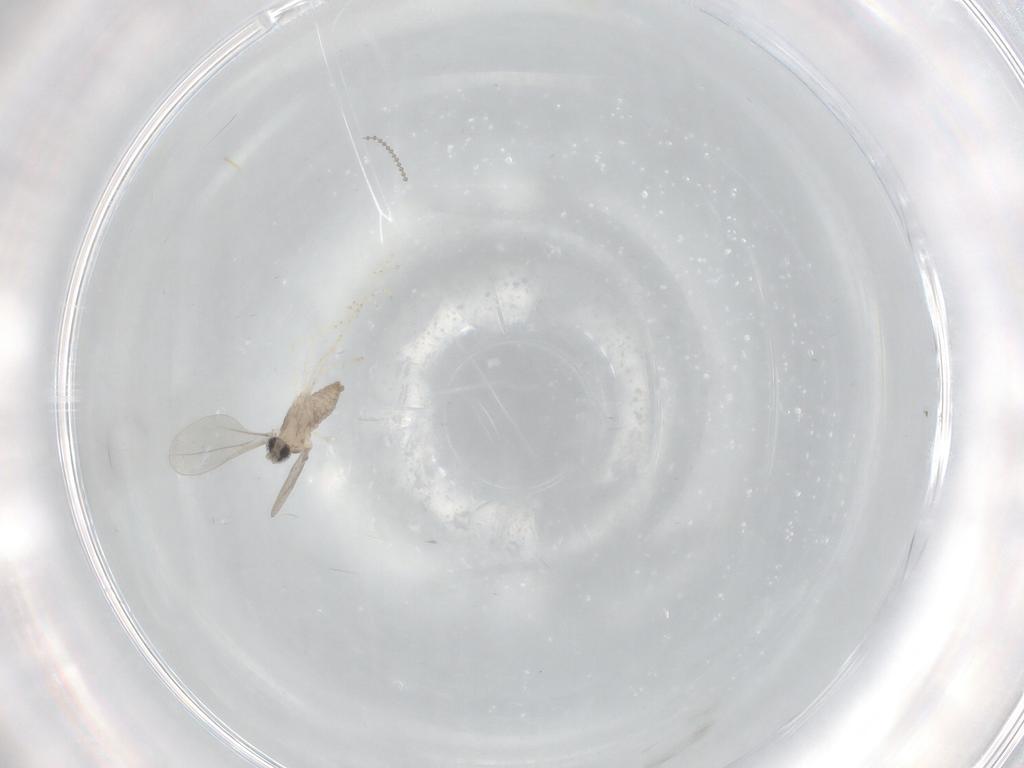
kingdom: Animalia
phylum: Arthropoda
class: Insecta
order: Diptera
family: Cecidomyiidae
